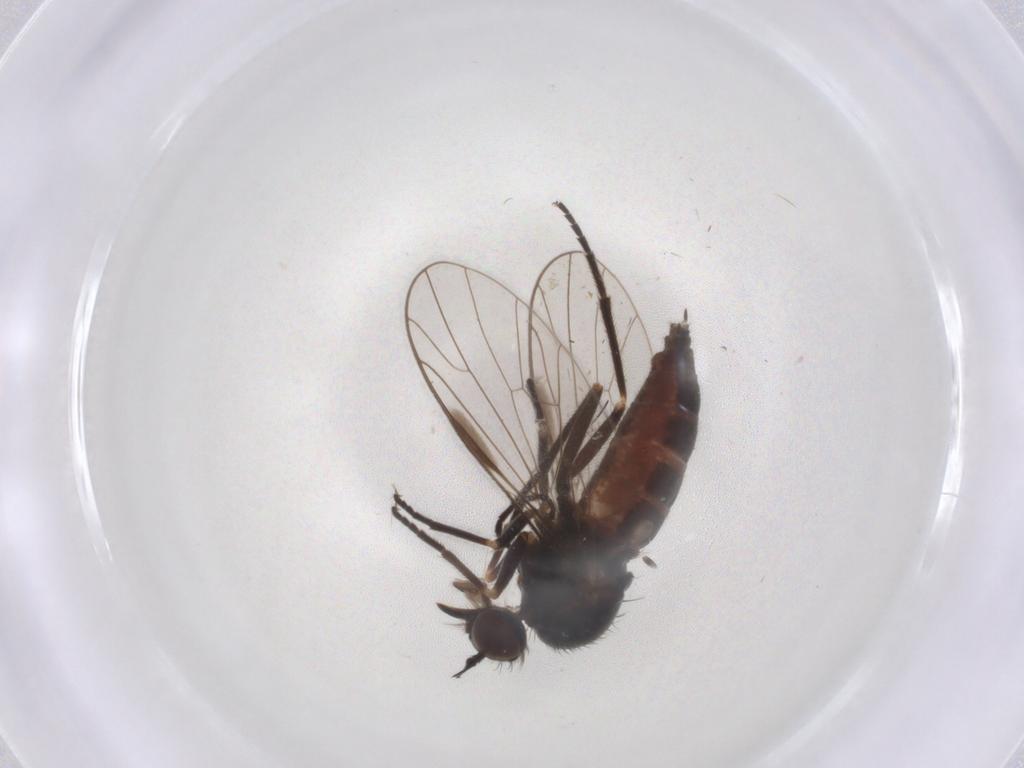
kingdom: Animalia
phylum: Arthropoda
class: Insecta
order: Diptera
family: Empididae
